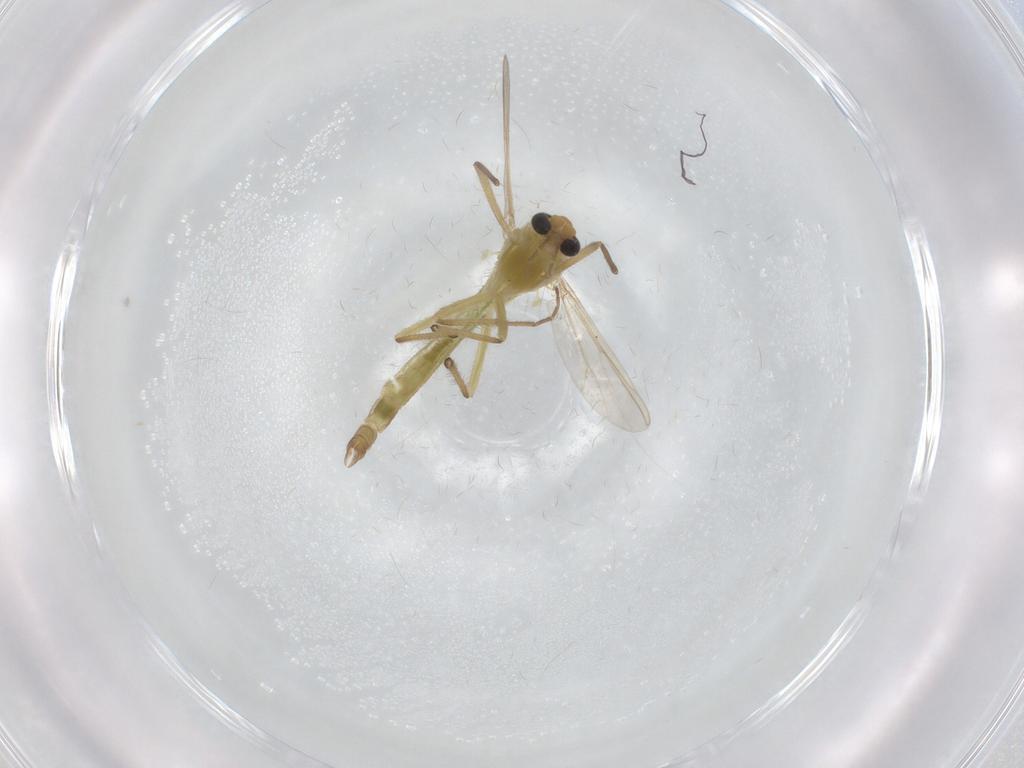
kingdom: Animalia
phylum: Arthropoda
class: Insecta
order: Diptera
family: Chironomidae
